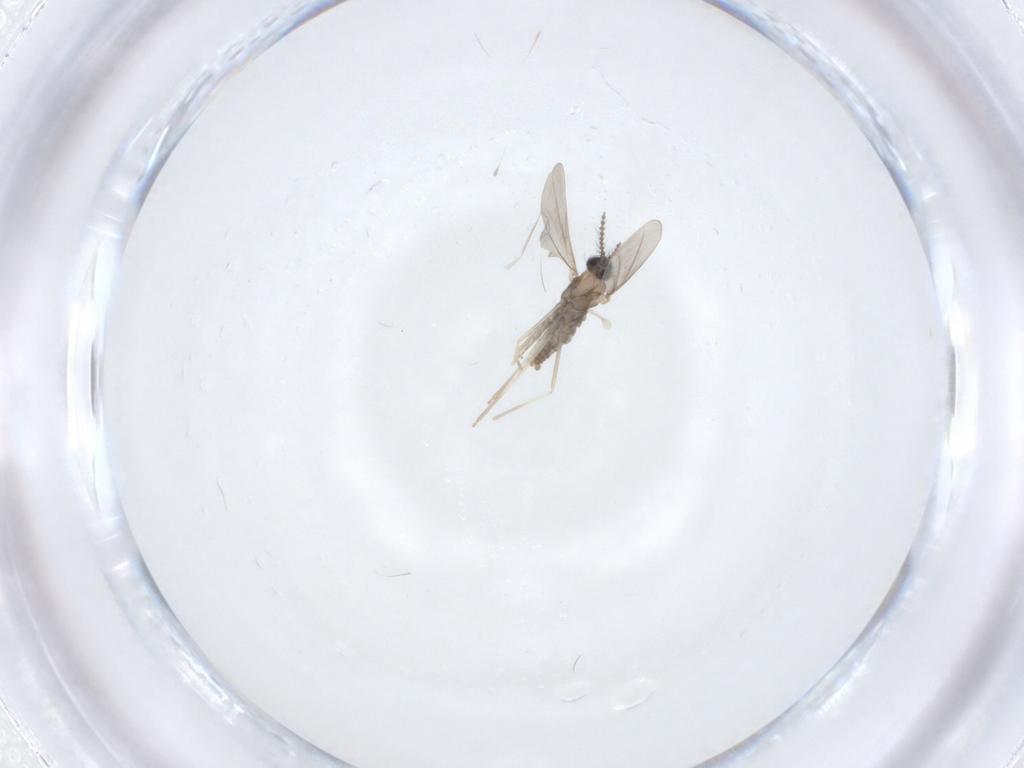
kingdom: Animalia
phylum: Arthropoda
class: Insecta
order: Diptera
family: Cecidomyiidae
